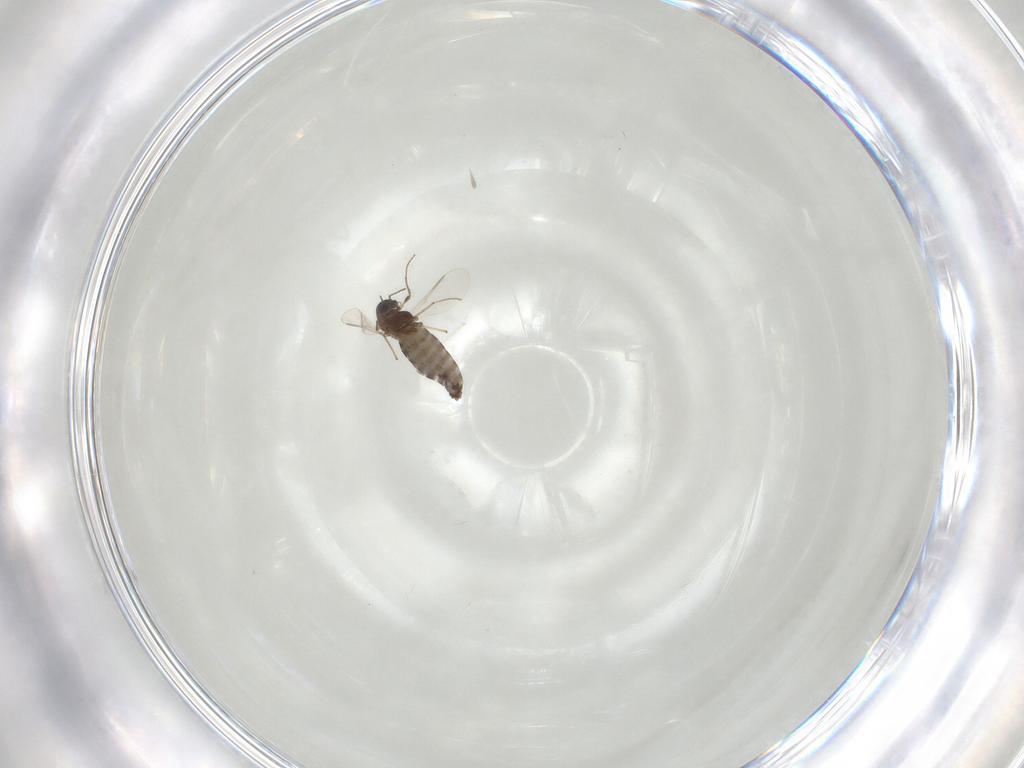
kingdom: Animalia
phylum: Arthropoda
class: Insecta
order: Diptera
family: Chironomidae
